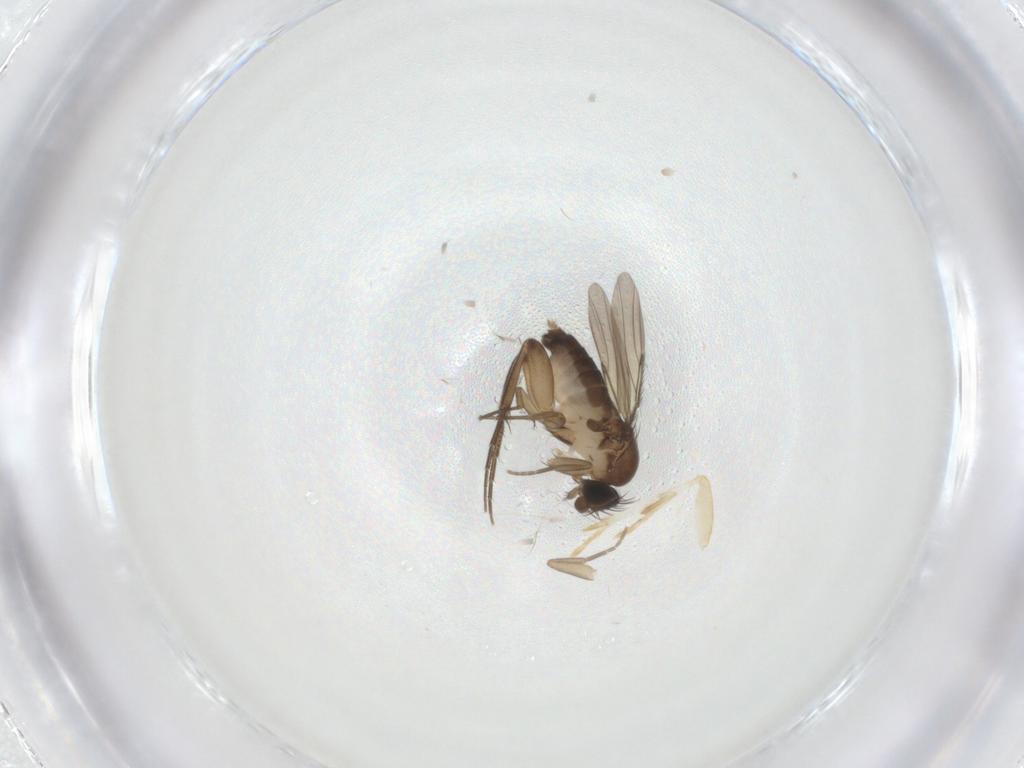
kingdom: Animalia
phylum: Arthropoda
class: Insecta
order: Diptera
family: Phoridae
